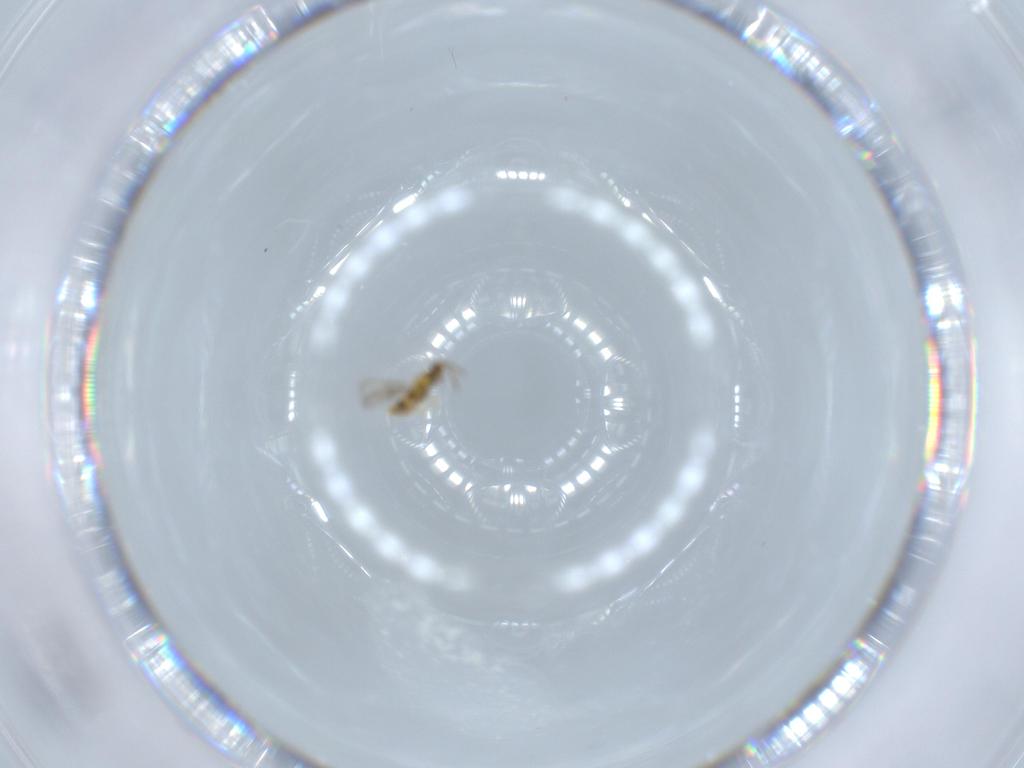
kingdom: Animalia
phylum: Arthropoda
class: Insecta
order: Hymenoptera
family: Aphelinidae
